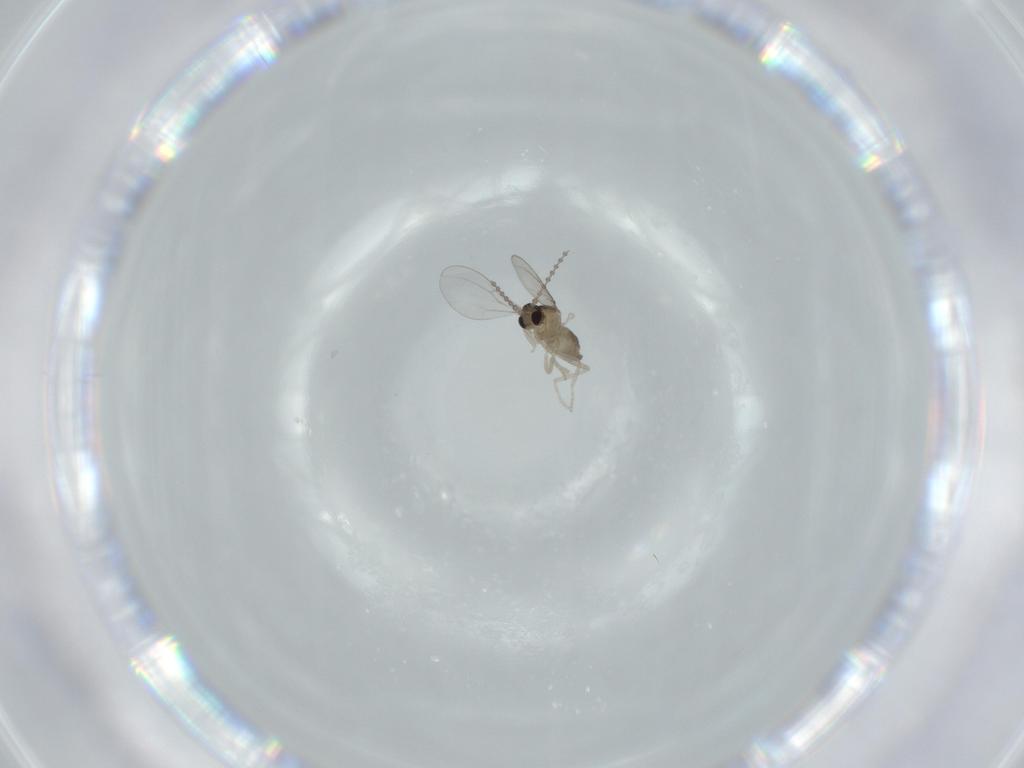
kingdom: Animalia
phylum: Arthropoda
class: Insecta
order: Diptera
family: Cecidomyiidae
